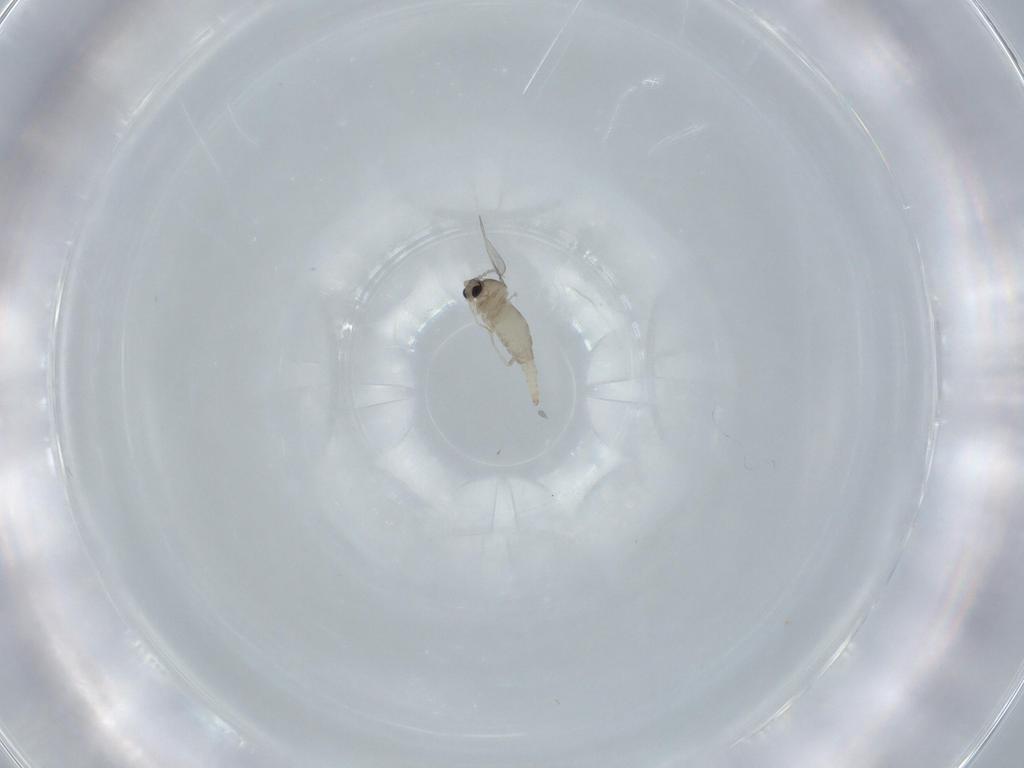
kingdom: Animalia
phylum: Arthropoda
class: Insecta
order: Diptera
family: Cecidomyiidae
